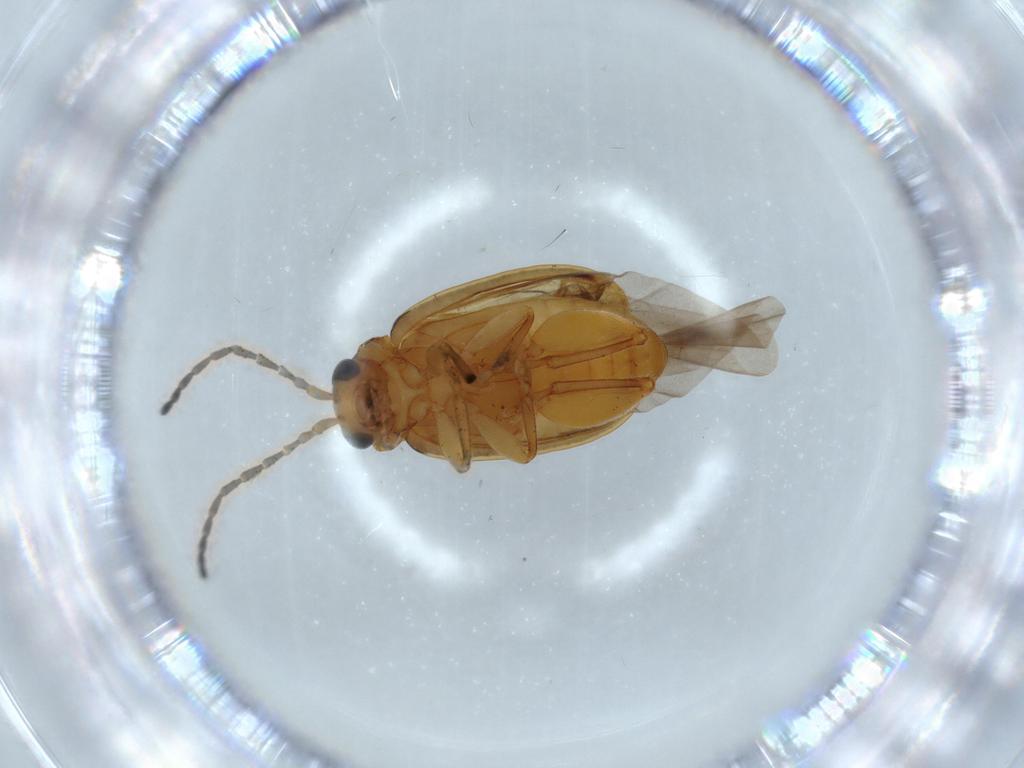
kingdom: Animalia
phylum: Arthropoda
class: Insecta
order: Coleoptera
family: Chrysomelidae
